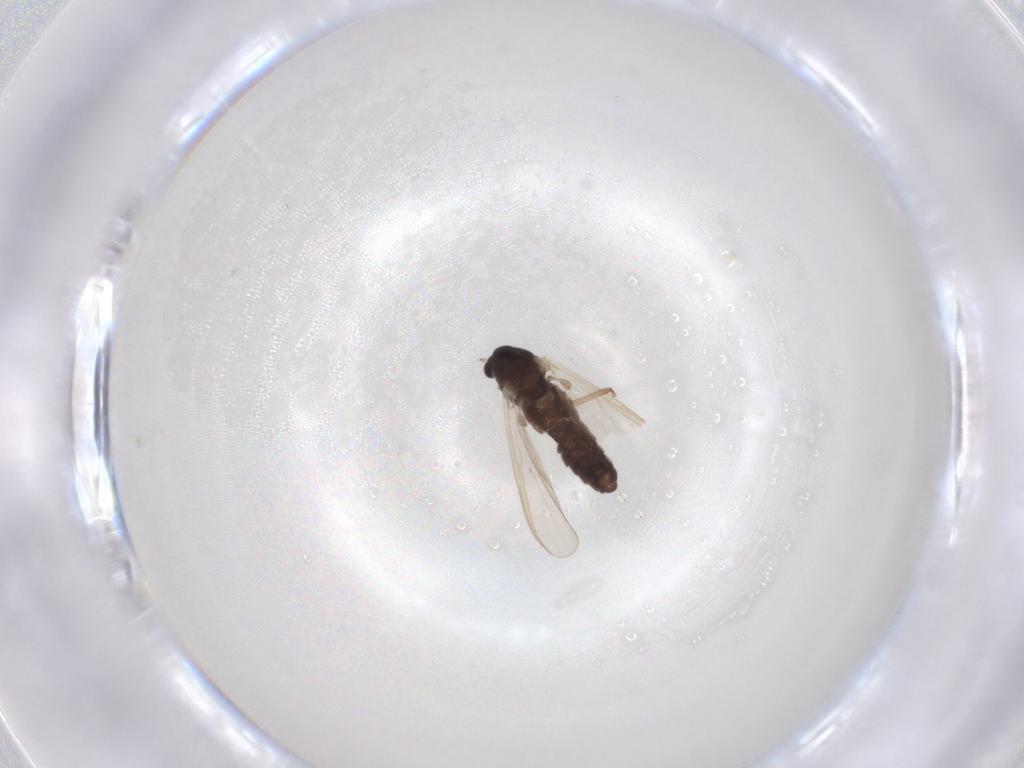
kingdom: Animalia
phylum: Arthropoda
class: Insecta
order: Diptera
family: Chironomidae
